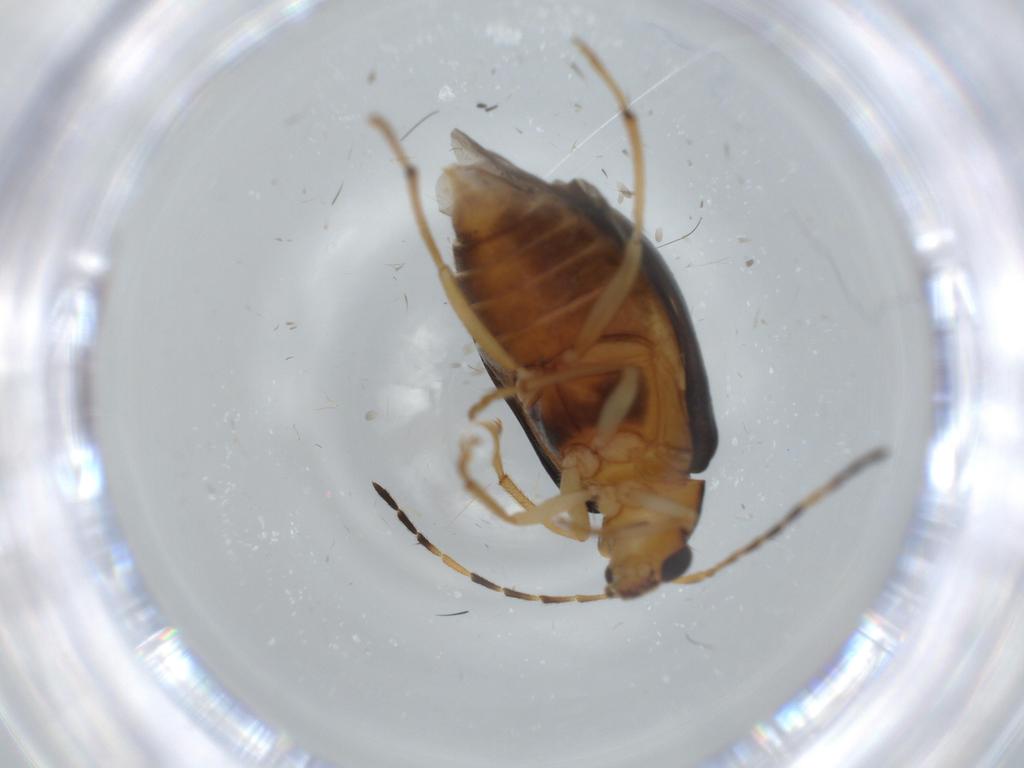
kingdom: Animalia
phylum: Arthropoda
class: Insecta
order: Coleoptera
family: Chrysomelidae
